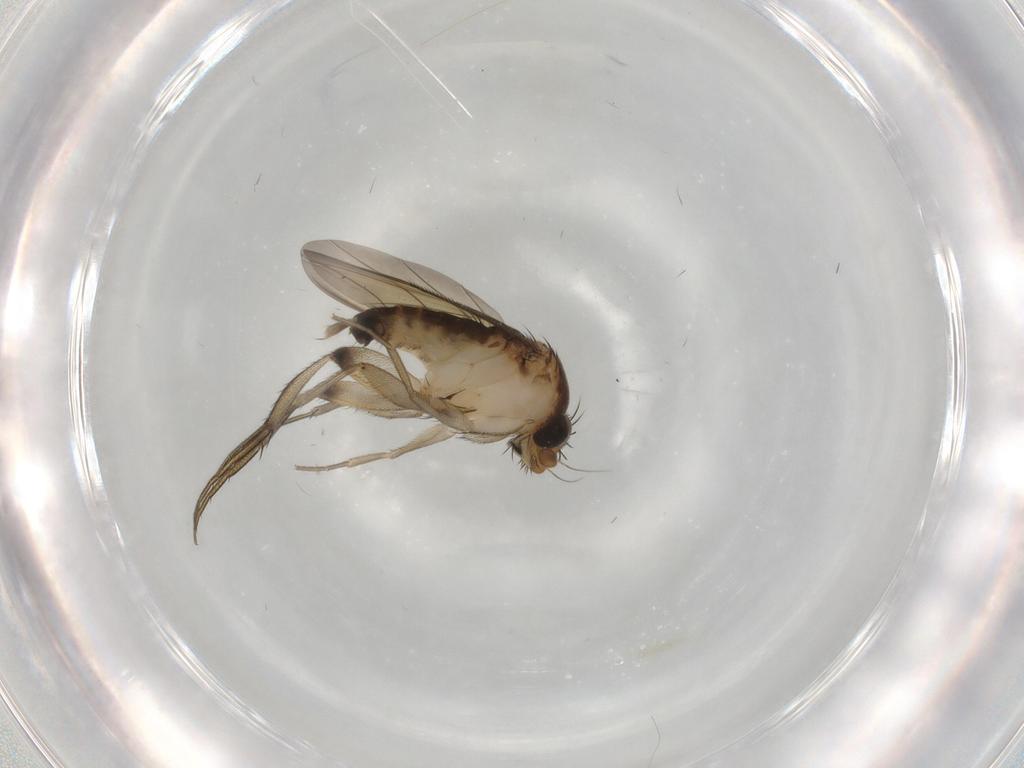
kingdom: Animalia
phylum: Arthropoda
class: Insecta
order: Diptera
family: Phoridae
